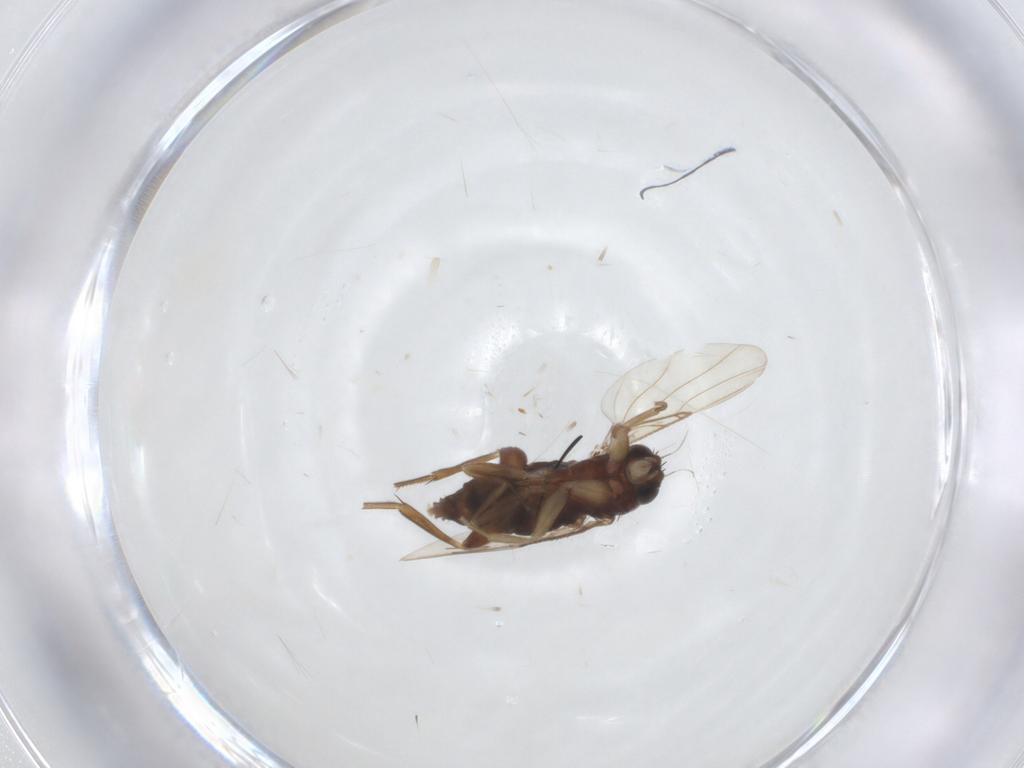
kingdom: Animalia
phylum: Arthropoda
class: Insecta
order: Diptera
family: Phoridae
